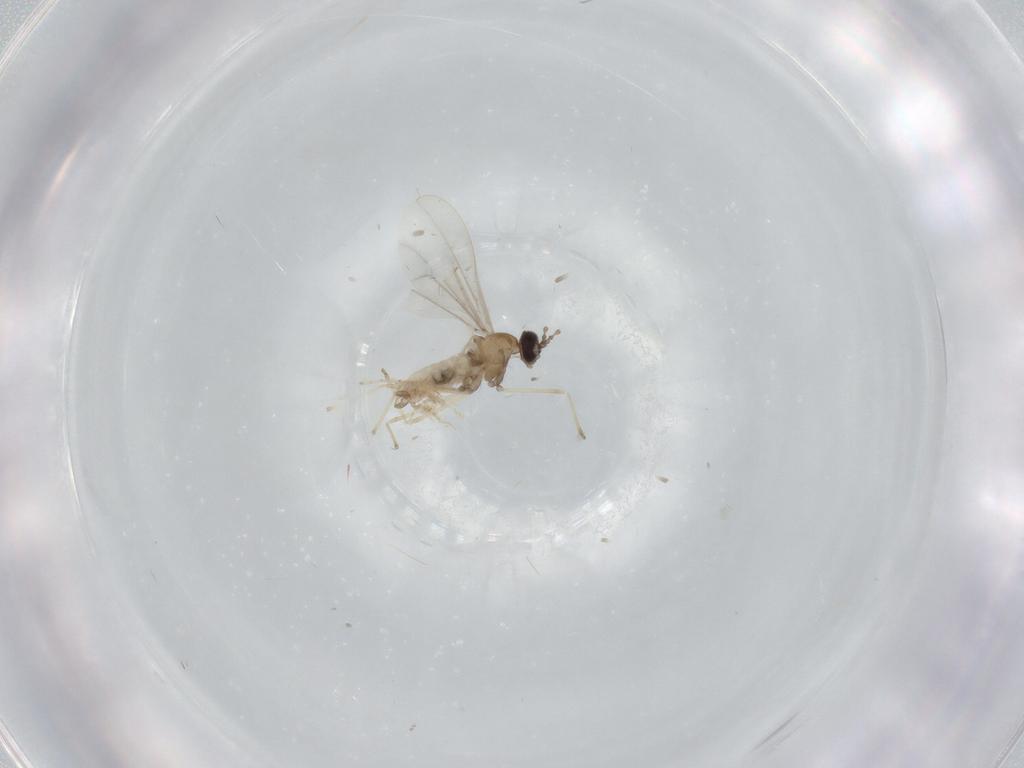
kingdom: Animalia
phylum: Arthropoda
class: Insecta
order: Diptera
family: Cecidomyiidae
